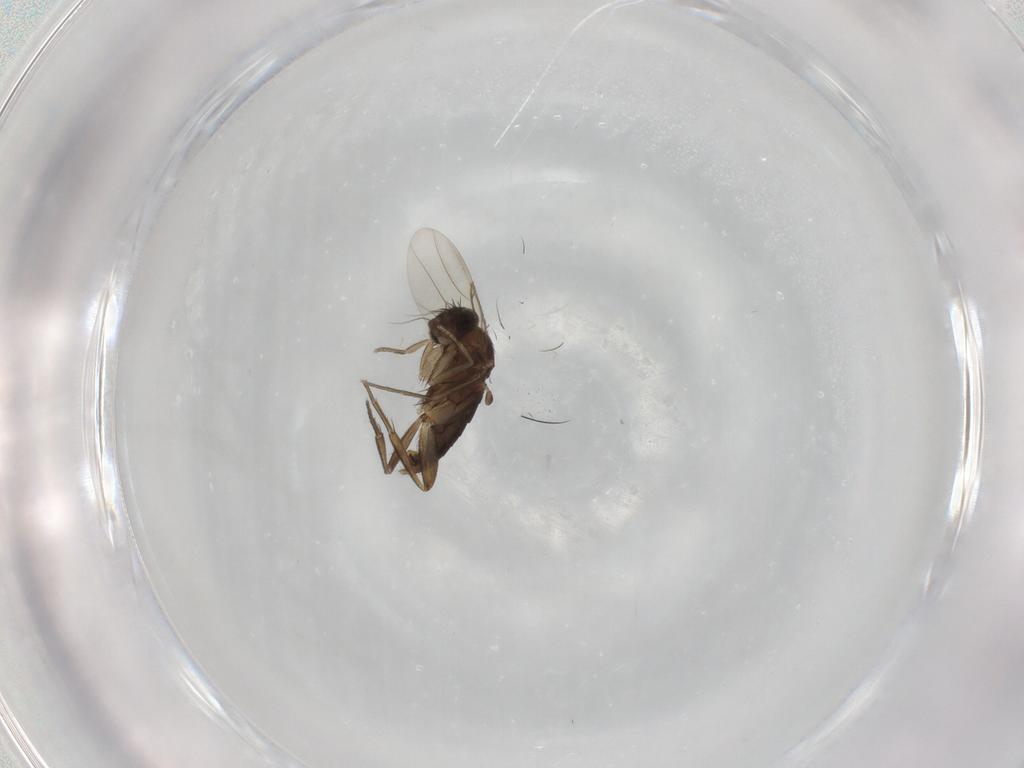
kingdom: Animalia
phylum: Arthropoda
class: Insecta
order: Diptera
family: Phoridae
